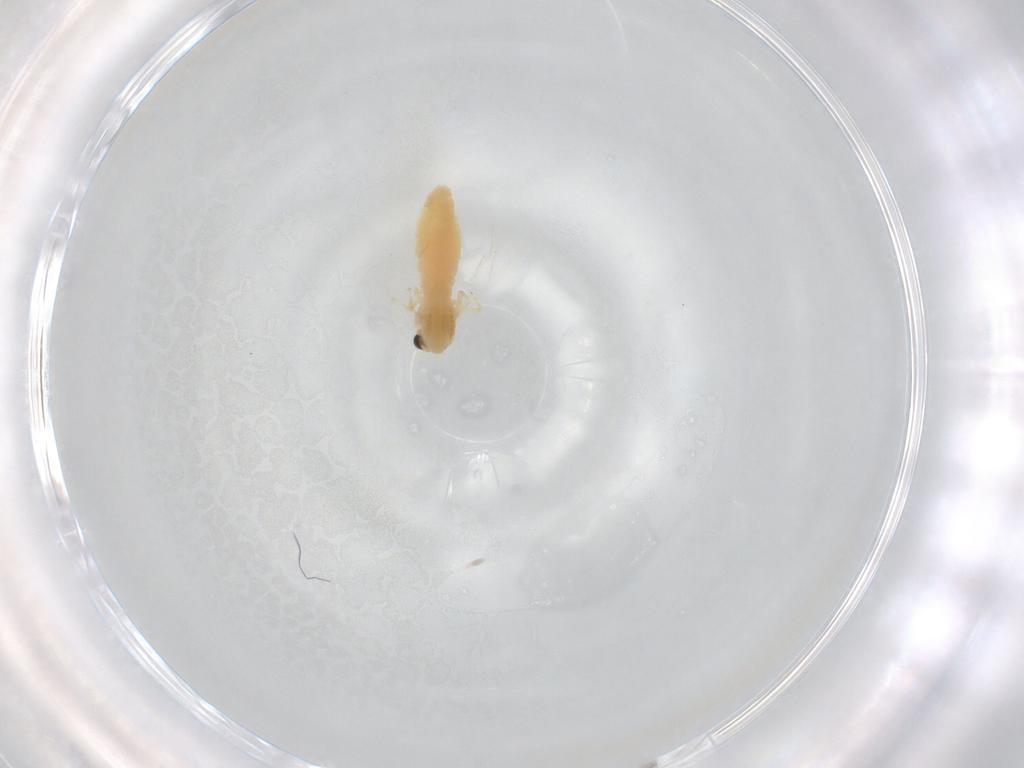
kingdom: Animalia
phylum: Arthropoda
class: Insecta
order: Diptera
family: Chironomidae
